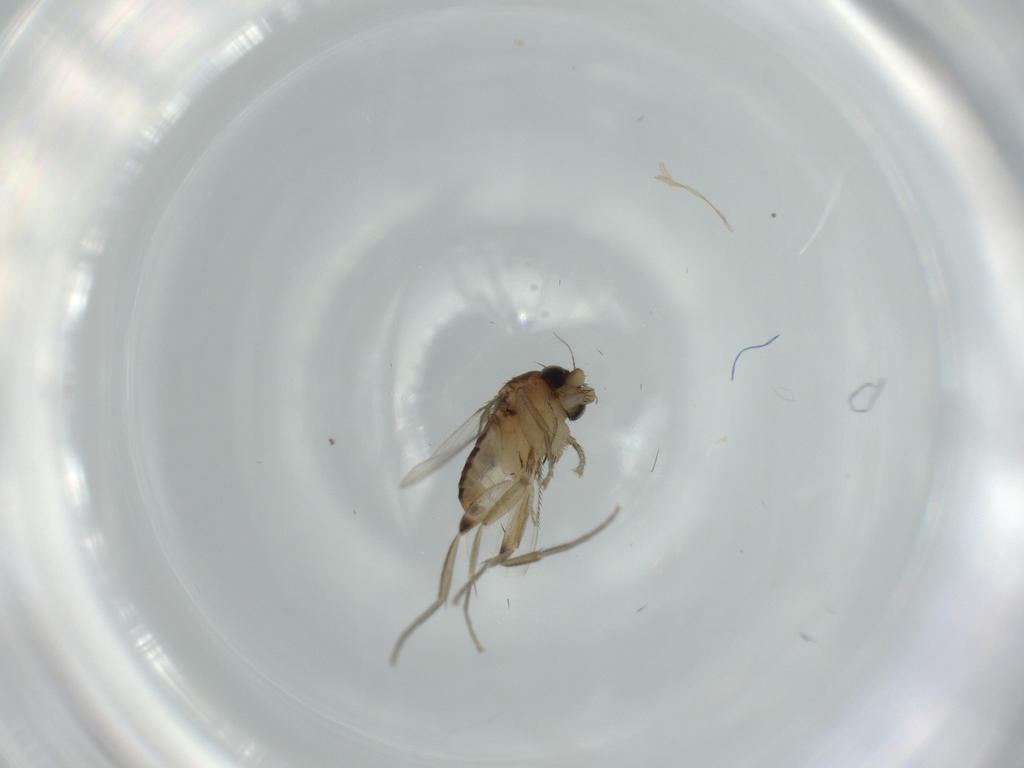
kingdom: Animalia
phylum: Arthropoda
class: Insecta
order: Diptera
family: Phoridae
